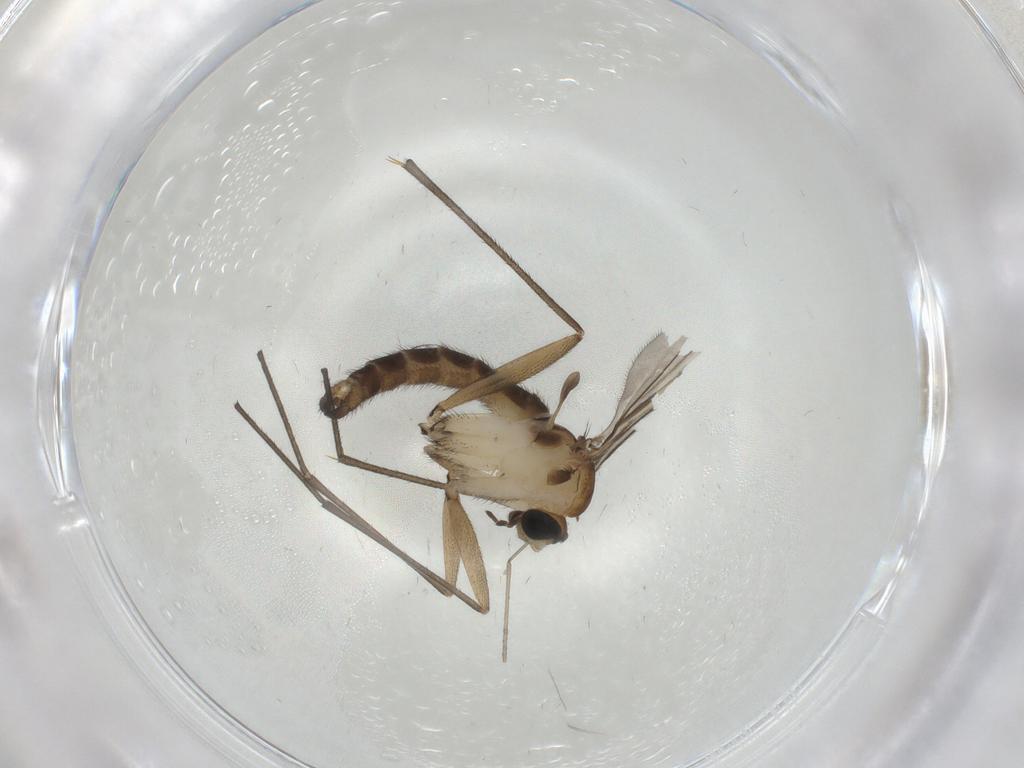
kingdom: Animalia
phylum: Arthropoda
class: Insecta
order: Diptera
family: Sciaridae
